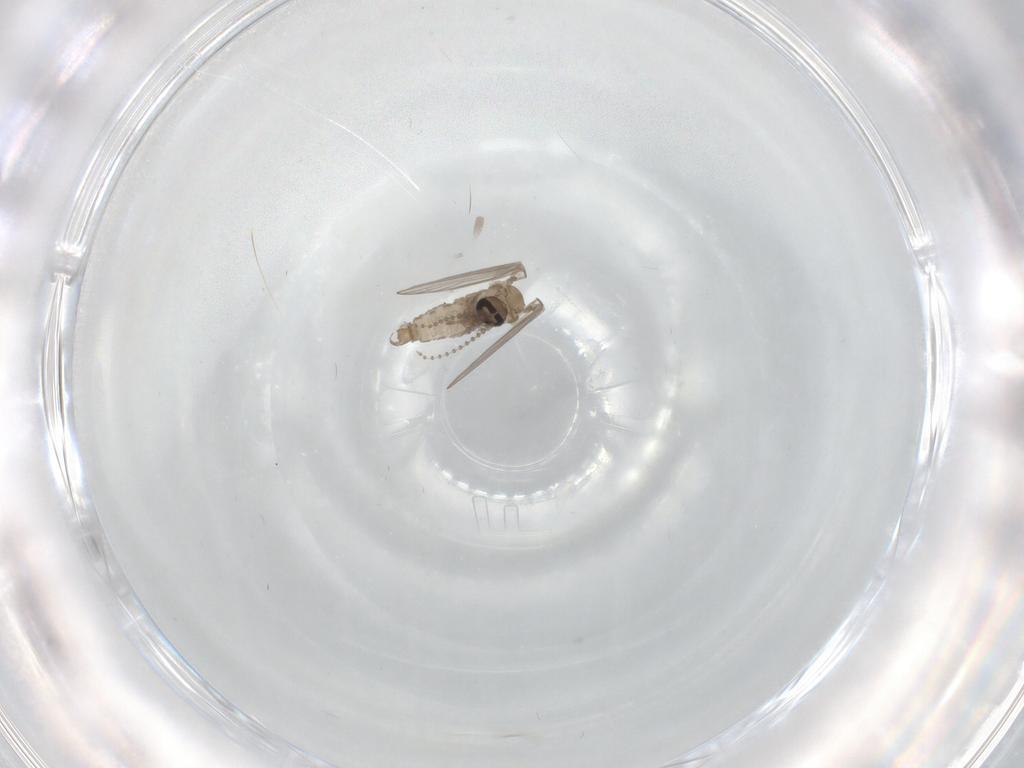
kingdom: Animalia
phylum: Arthropoda
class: Insecta
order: Diptera
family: Psychodidae
